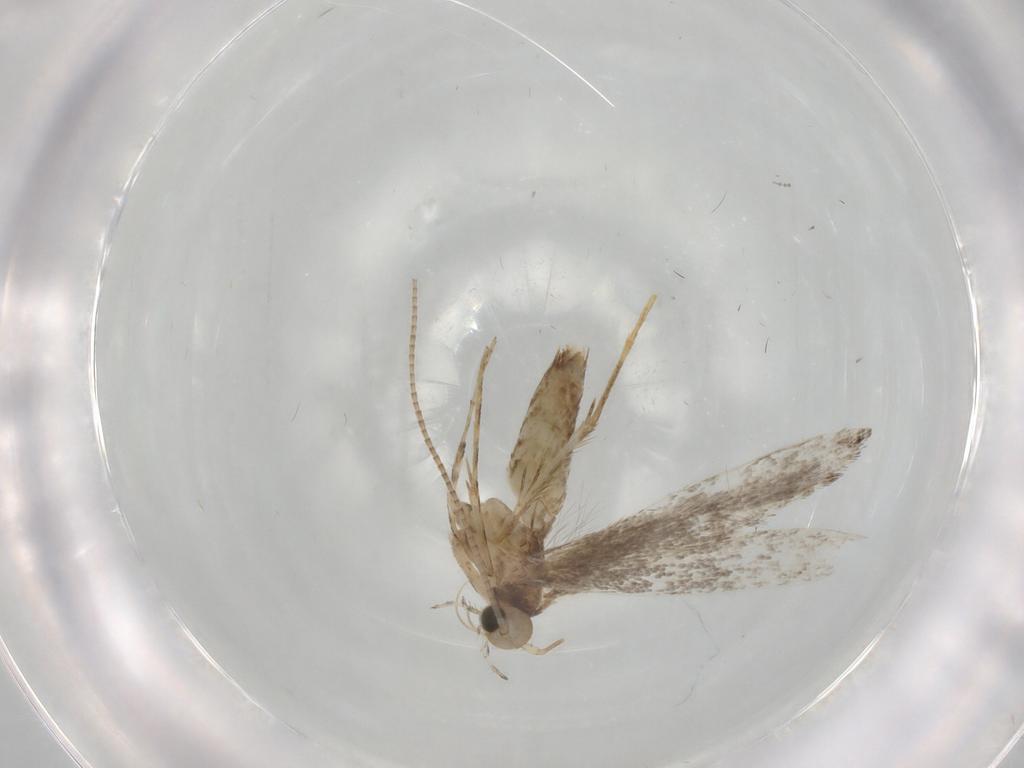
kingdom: Animalia
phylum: Arthropoda
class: Insecta
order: Lepidoptera
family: Gracillariidae
